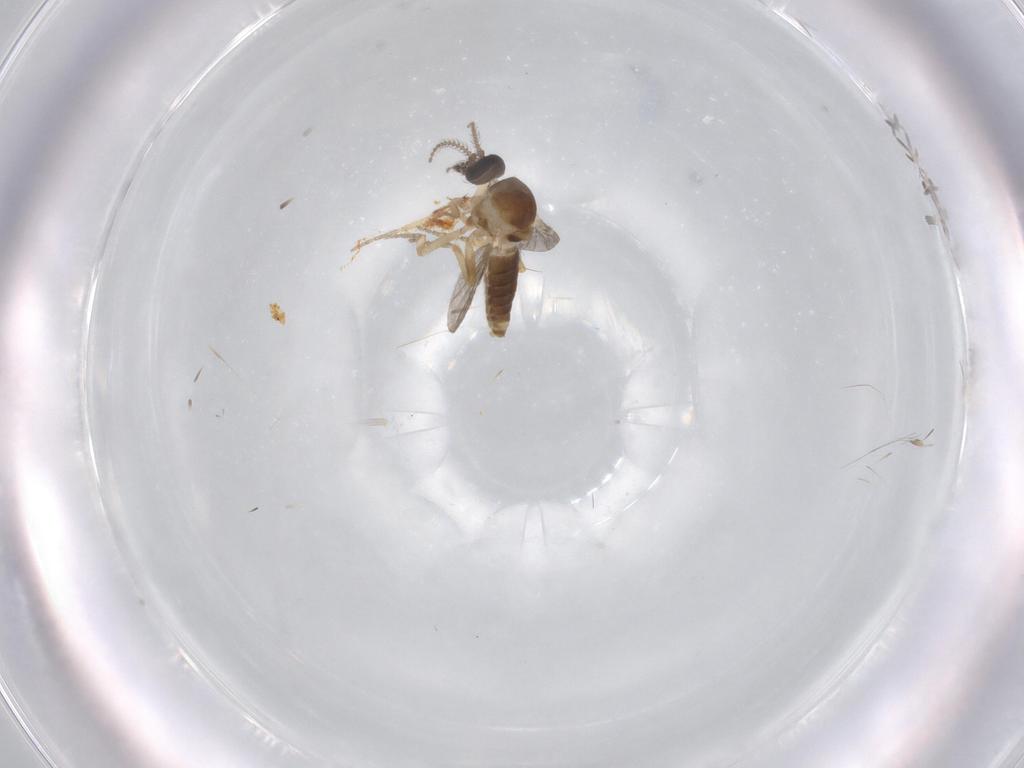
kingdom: Animalia
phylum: Arthropoda
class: Insecta
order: Diptera
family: Ceratopogonidae
